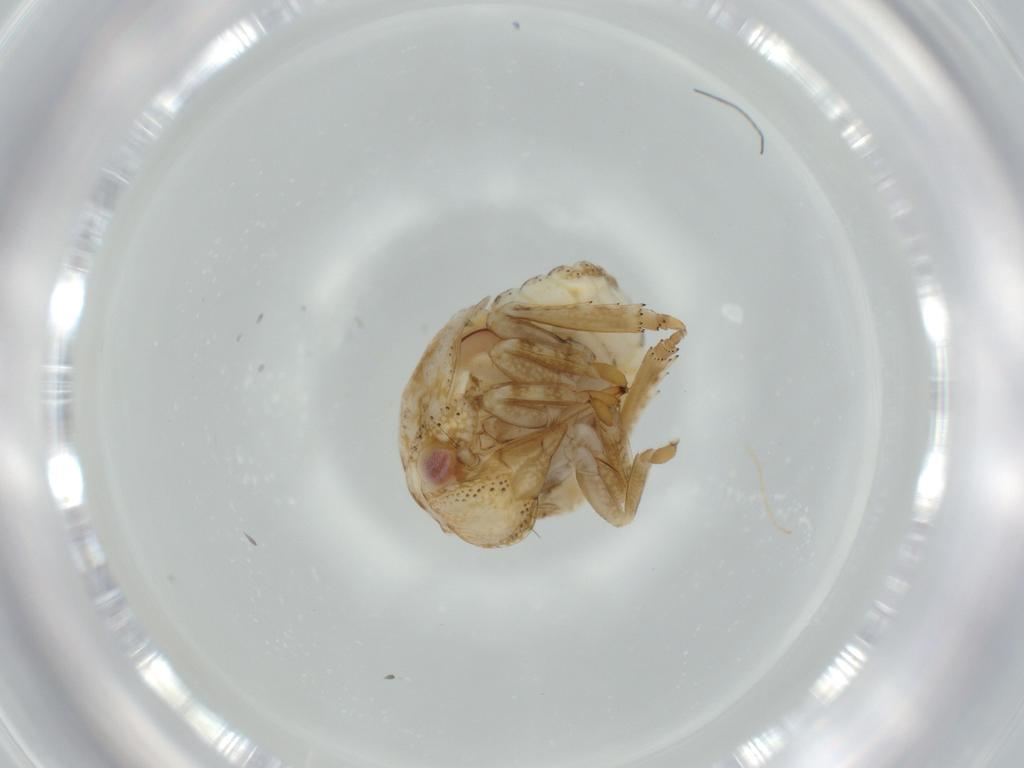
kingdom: Animalia
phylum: Arthropoda
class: Insecta
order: Hemiptera
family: Acanaloniidae
